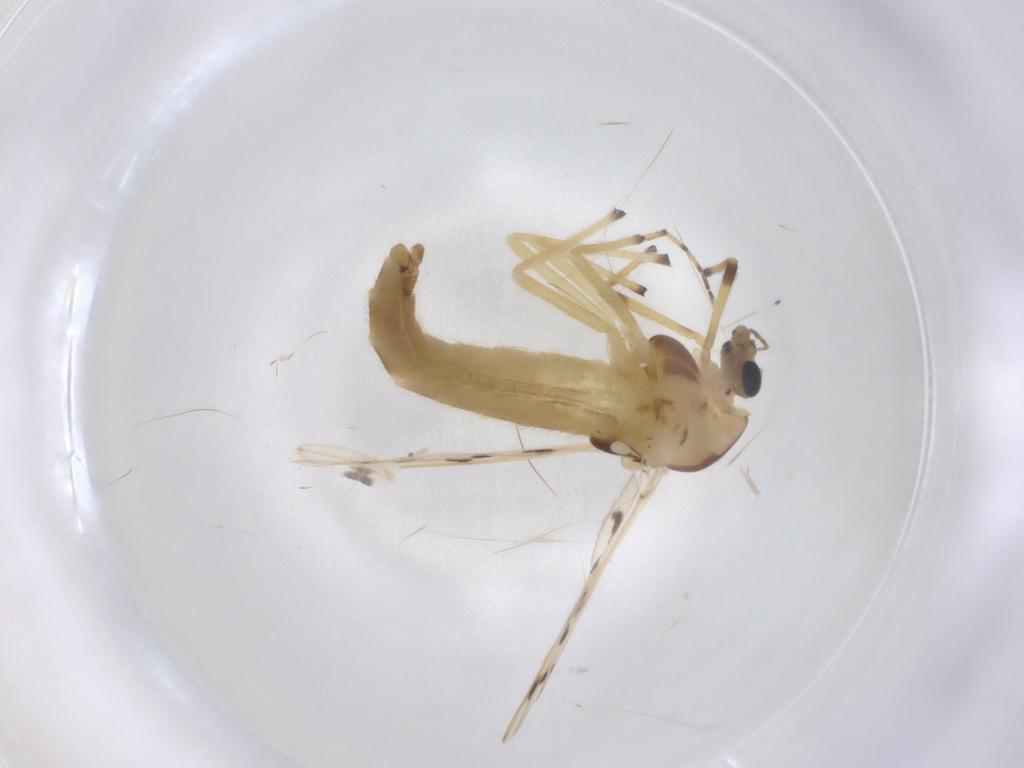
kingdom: Animalia
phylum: Arthropoda
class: Insecta
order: Diptera
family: Chironomidae
